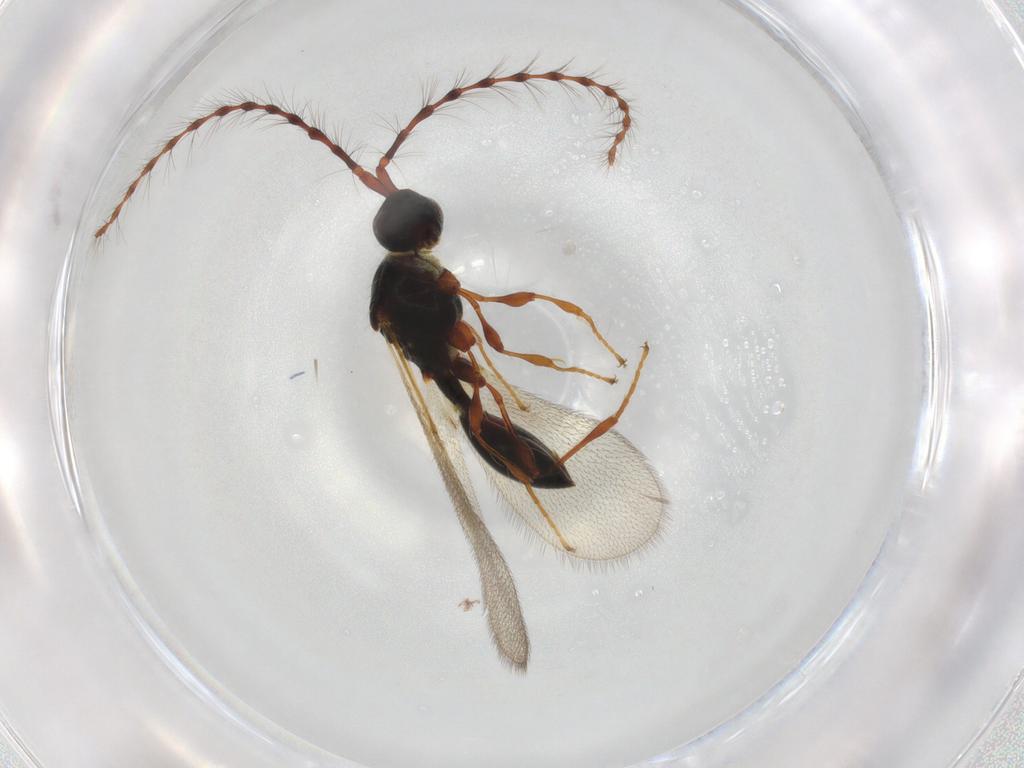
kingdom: Animalia
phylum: Arthropoda
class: Insecta
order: Hymenoptera
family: Diapriidae
